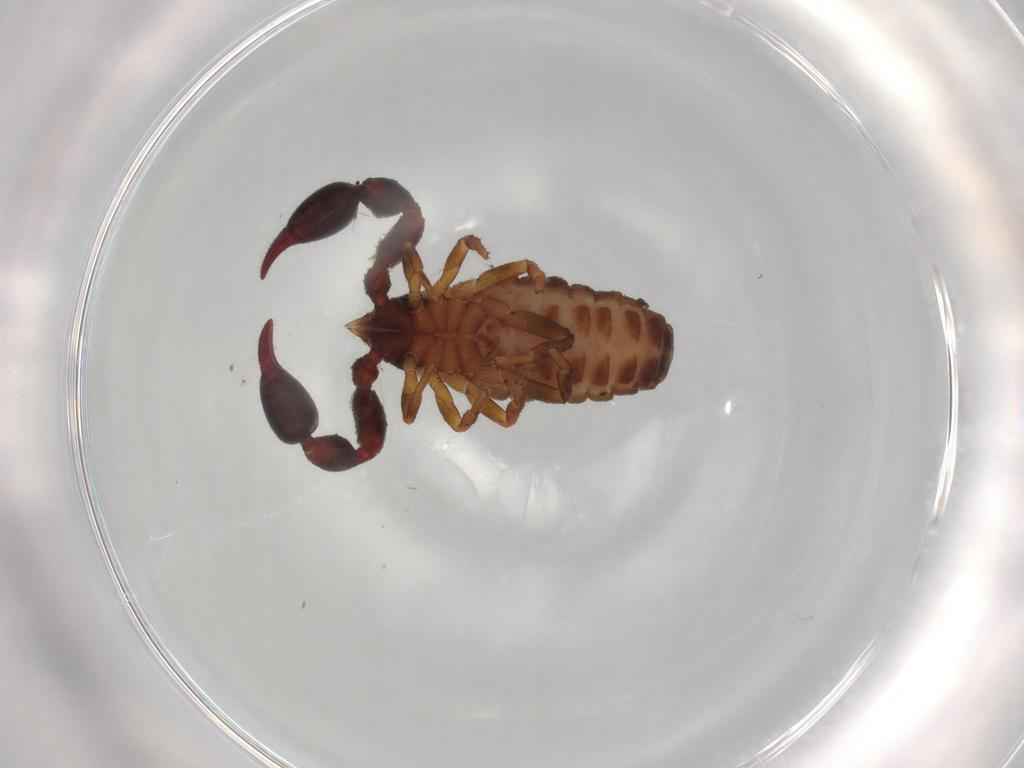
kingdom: Animalia
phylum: Arthropoda
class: Arachnida
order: Pseudoscorpiones
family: Chernetidae
